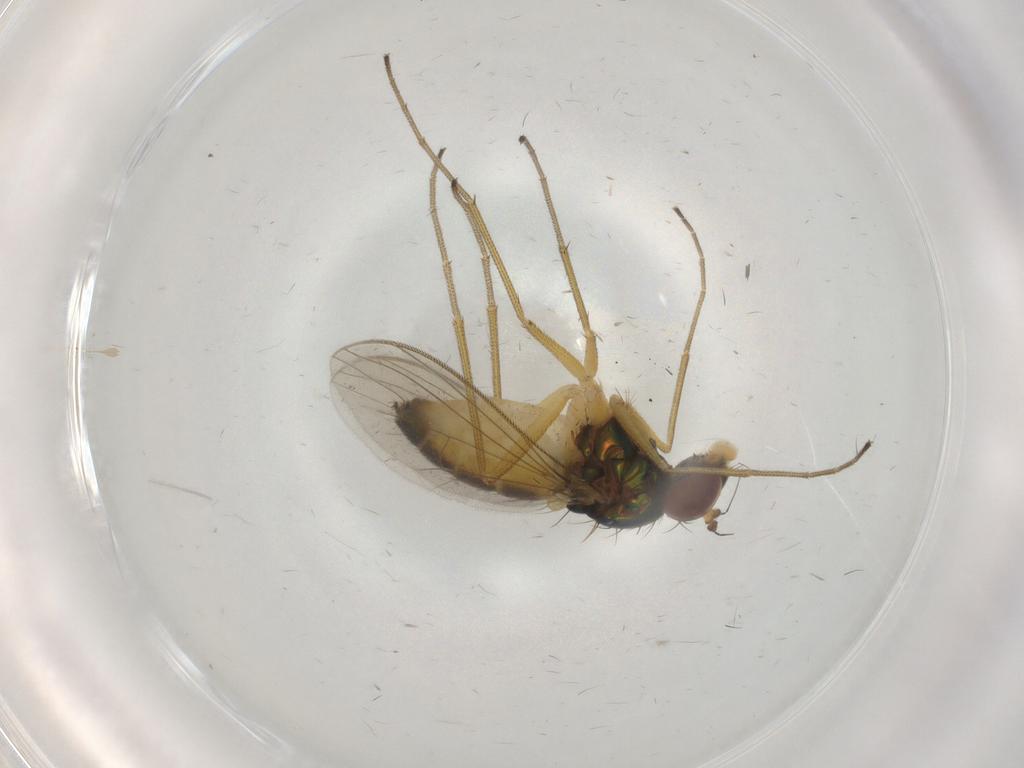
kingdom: Animalia
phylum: Arthropoda
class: Insecta
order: Diptera
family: Dolichopodidae
